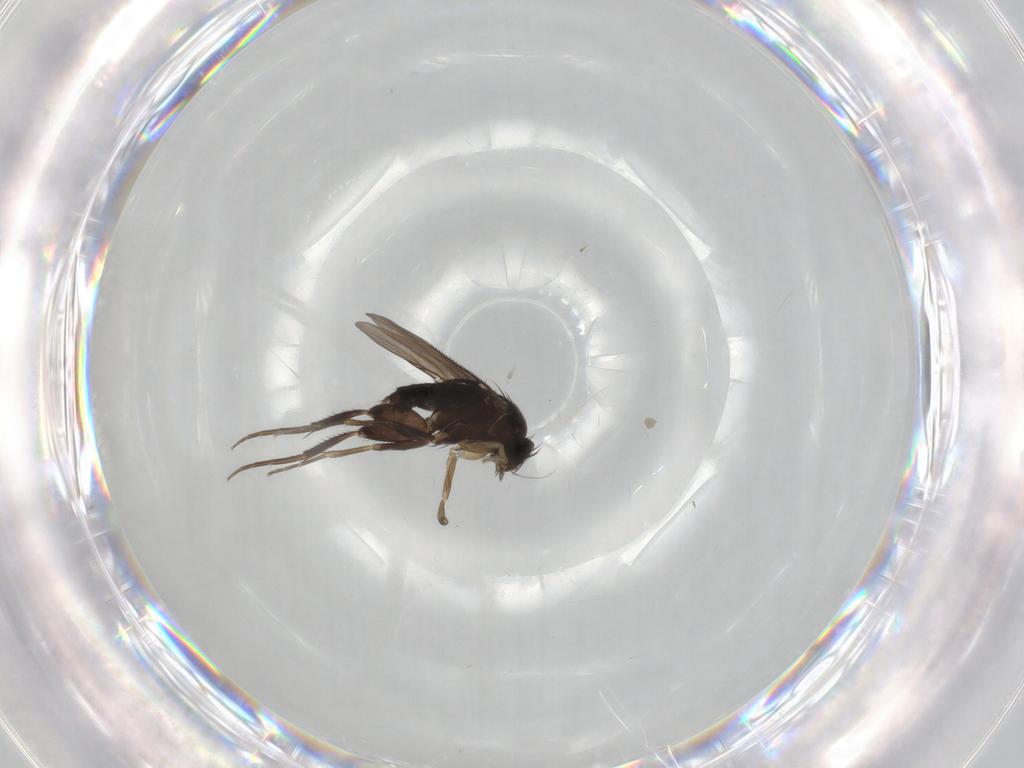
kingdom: Animalia
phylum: Arthropoda
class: Insecta
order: Diptera
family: Phoridae
